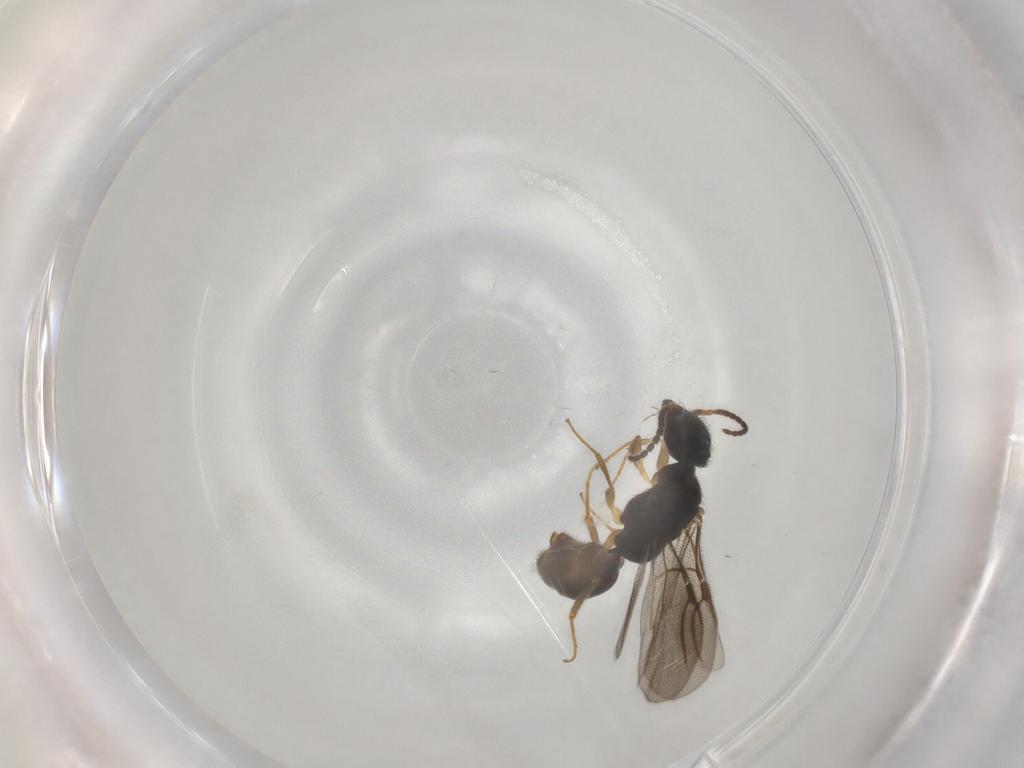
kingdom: Animalia
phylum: Arthropoda
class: Insecta
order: Hymenoptera
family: Bethylidae
